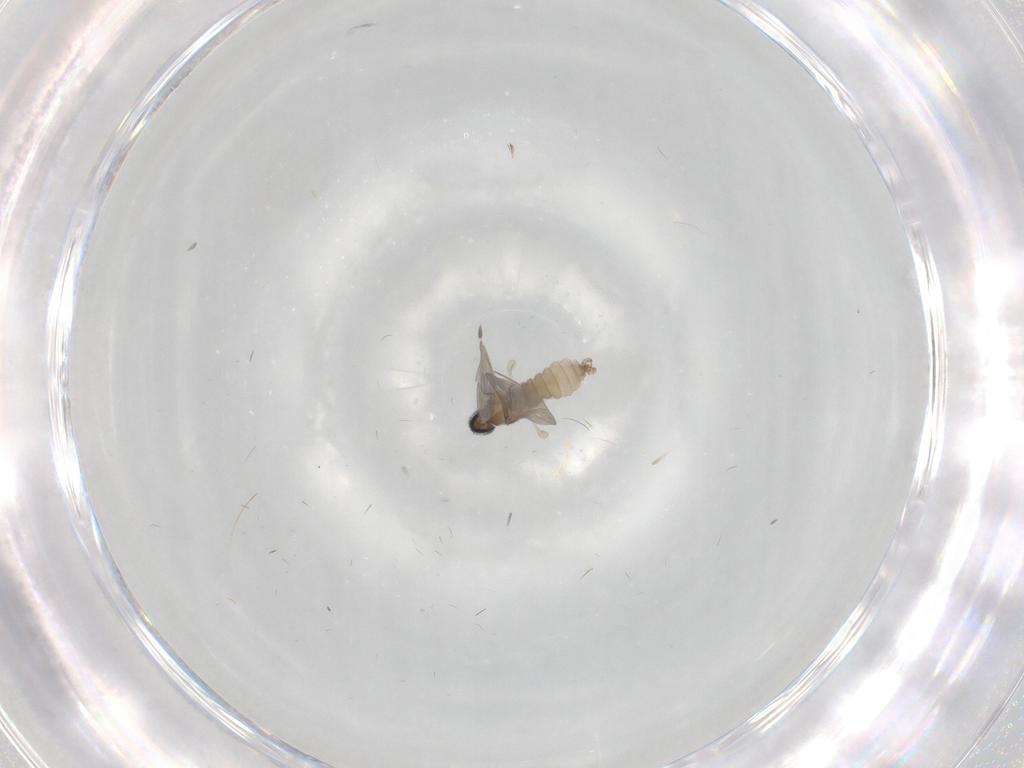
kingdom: Animalia
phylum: Arthropoda
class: Insecta
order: Diptera
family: Cecidomyiidae
